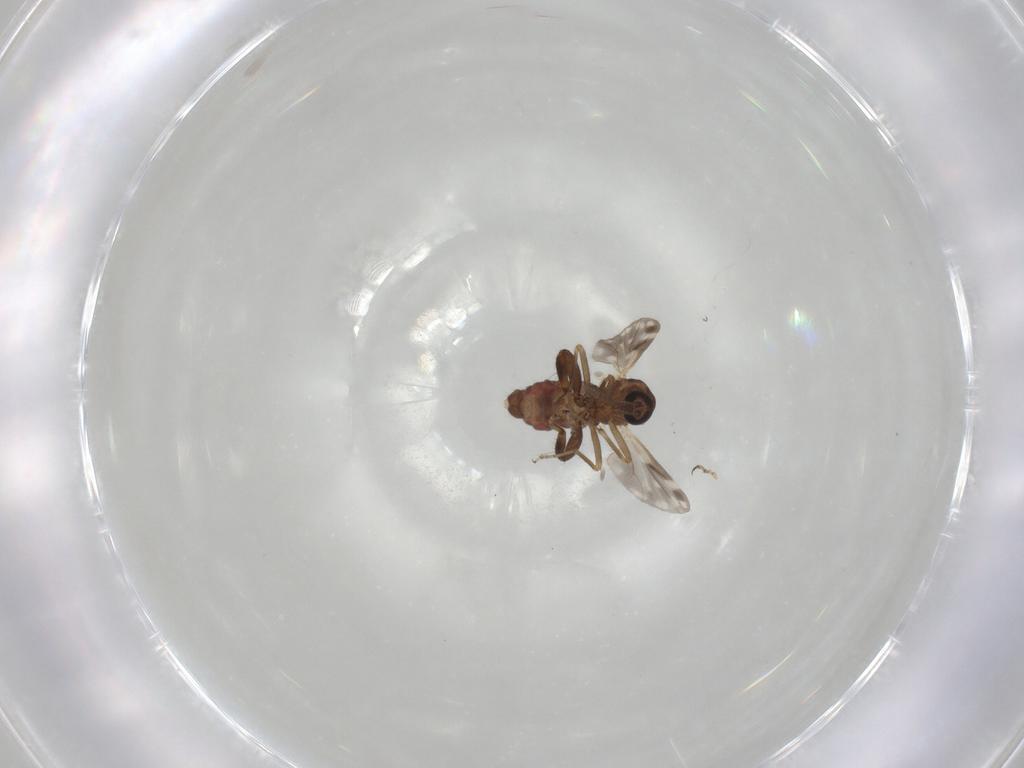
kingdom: Animalia
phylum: Arthropoda
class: Insecta
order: Diptera
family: Ceratopogonidae
